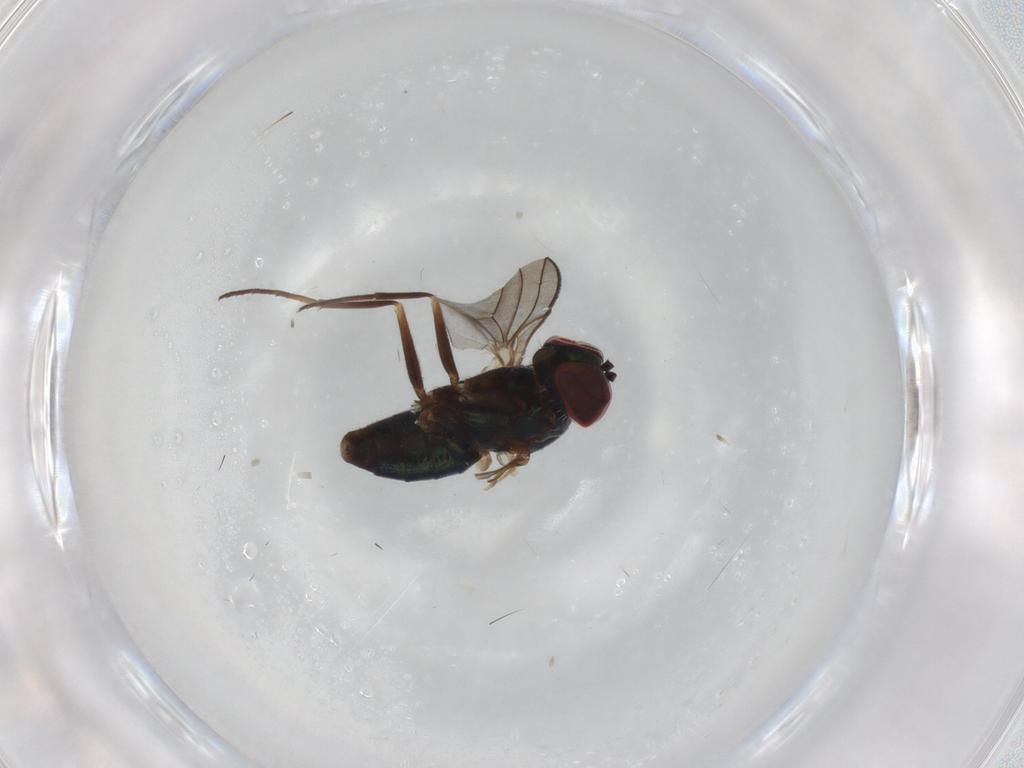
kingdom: Animalia
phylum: Arthropoda
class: Insecta
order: Diptera
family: Dolichopodidae
